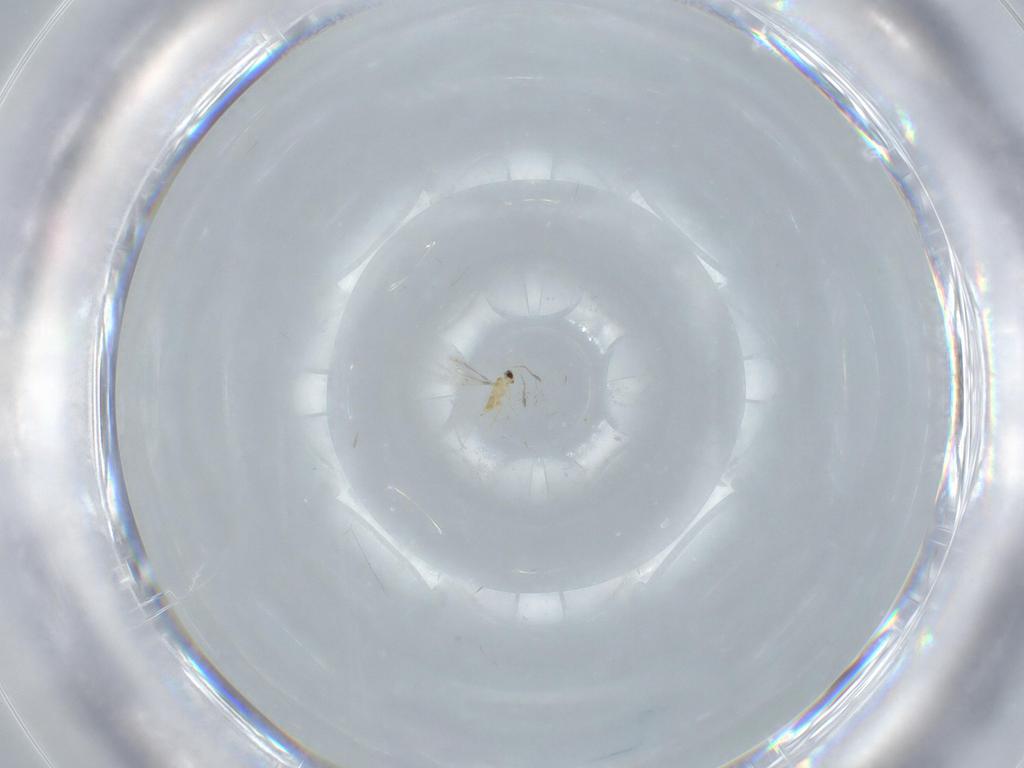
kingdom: Animalia
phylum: Arthropoda
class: Insecta
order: Hymenoptera
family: Mymaridae
